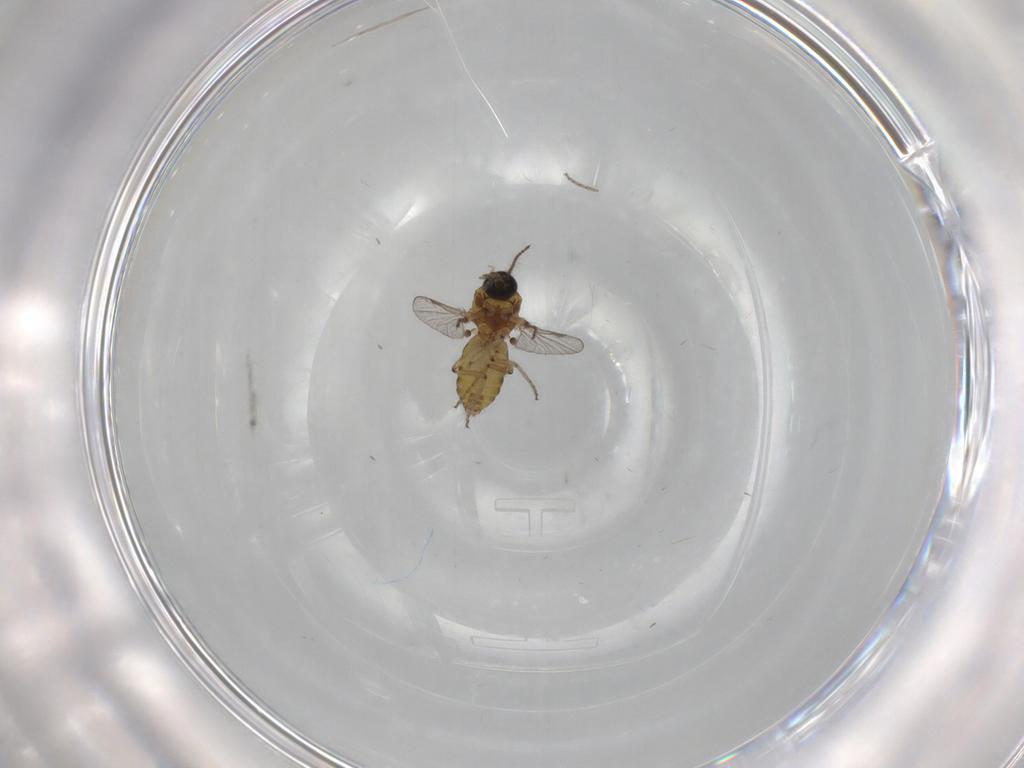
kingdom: Animalia
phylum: Arthropoda
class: Insecta
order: Diptera
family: Ceratopogonidae
